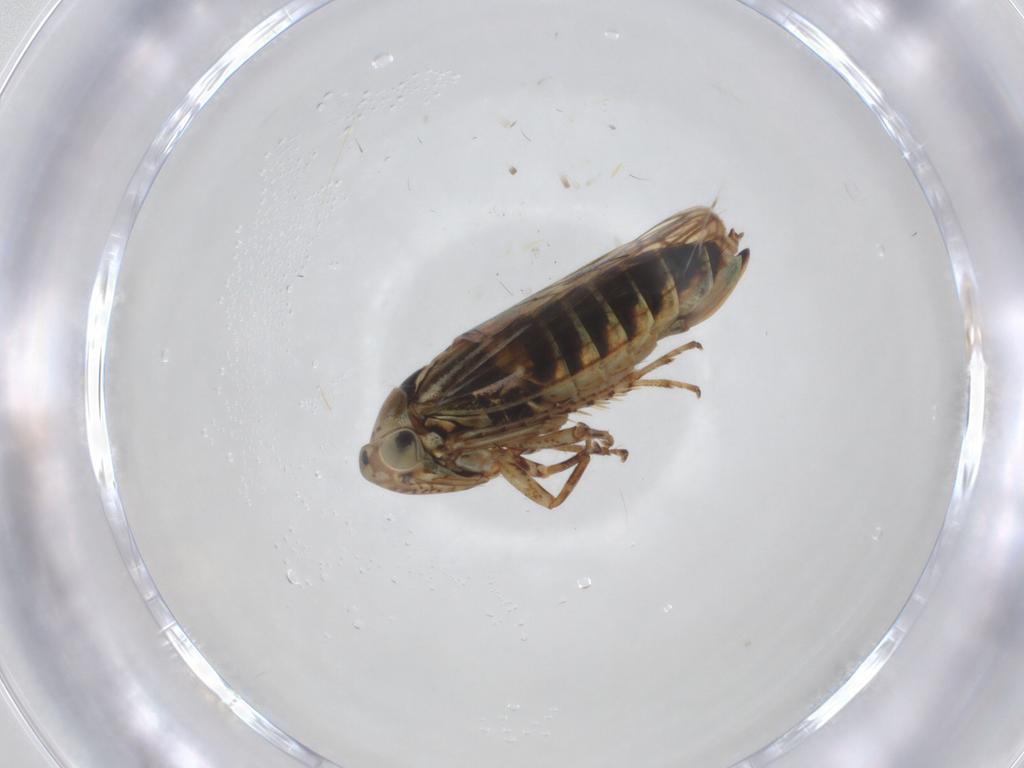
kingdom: Animalia
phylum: Arthropoda
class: Insecta
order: Hemiptera
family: Cicadellidae
